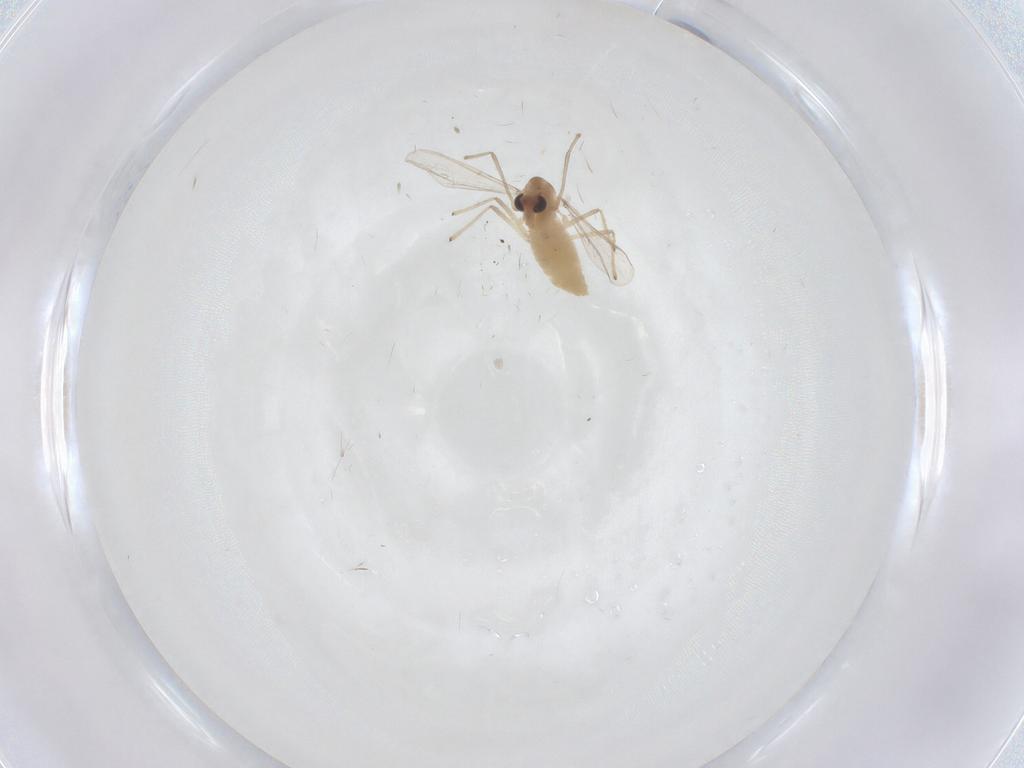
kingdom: Animalia
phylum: Arthropoda
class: Insecta
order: Diptera
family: Chironomidae
